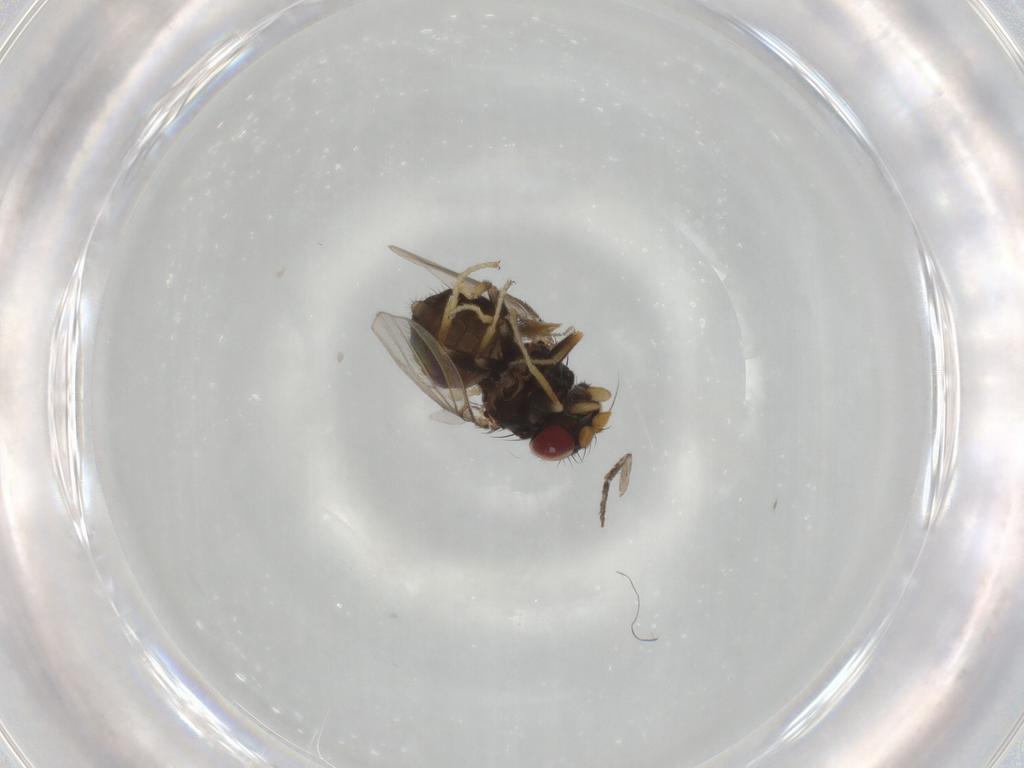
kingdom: Animalia
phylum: Arthropoda
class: Insecta
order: Diptera
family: Milichiidae
